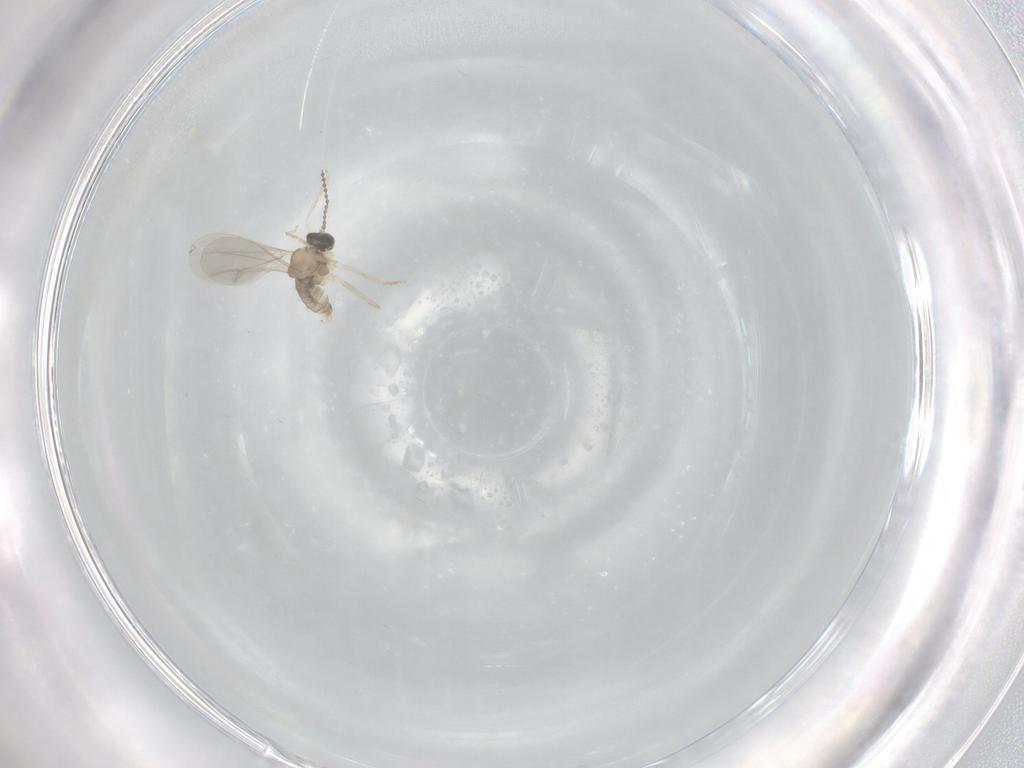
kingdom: Animalia
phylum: Arthropoda
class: Insecta
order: Diptera
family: Cecidomyiidae
